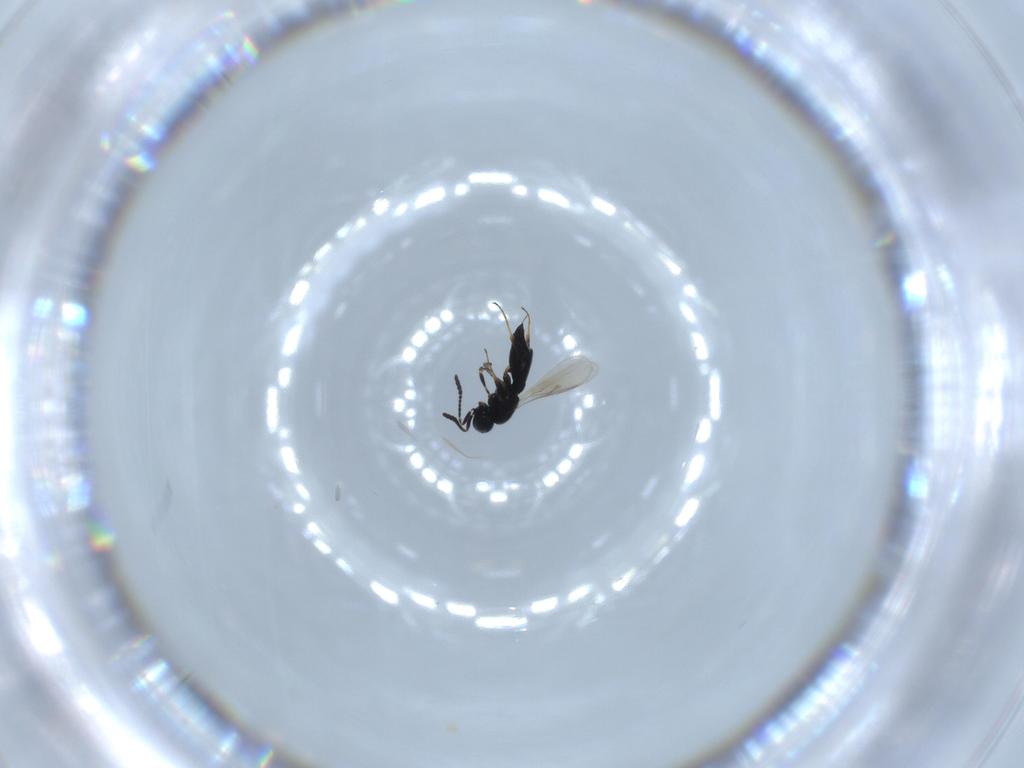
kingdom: Animalia
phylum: Arthropoda
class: Insecta
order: Hymenoptera
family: Scelionidae
